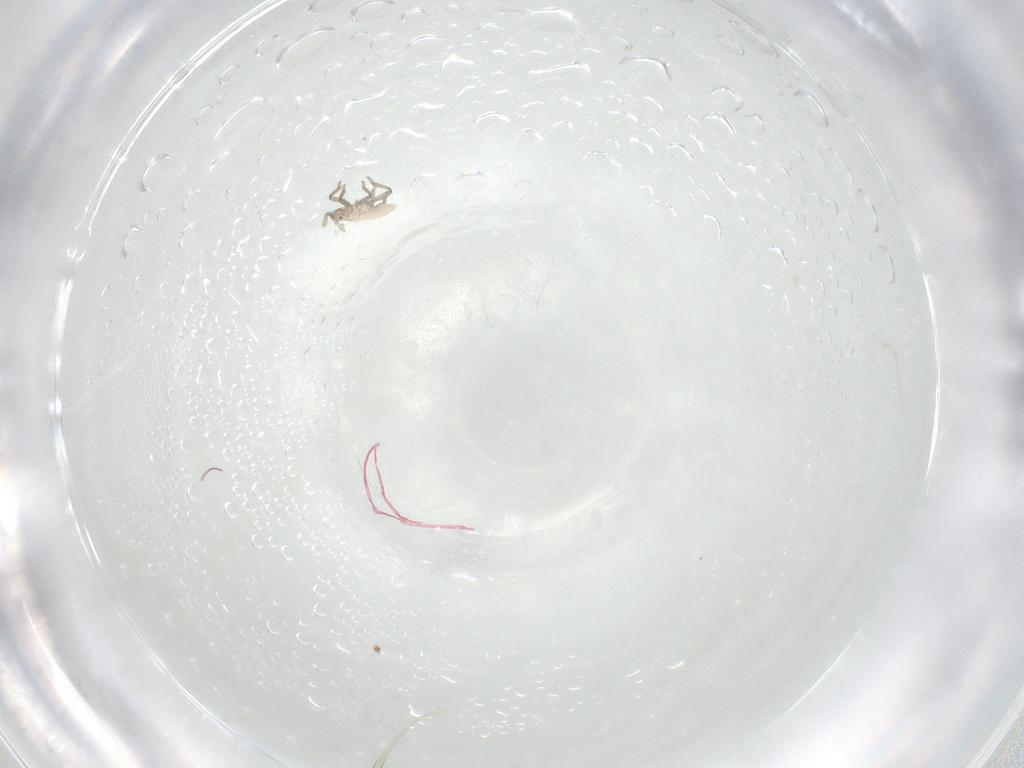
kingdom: Animalia
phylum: Arthropoda
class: Insecta
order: Hemiptera
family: Aphididae
